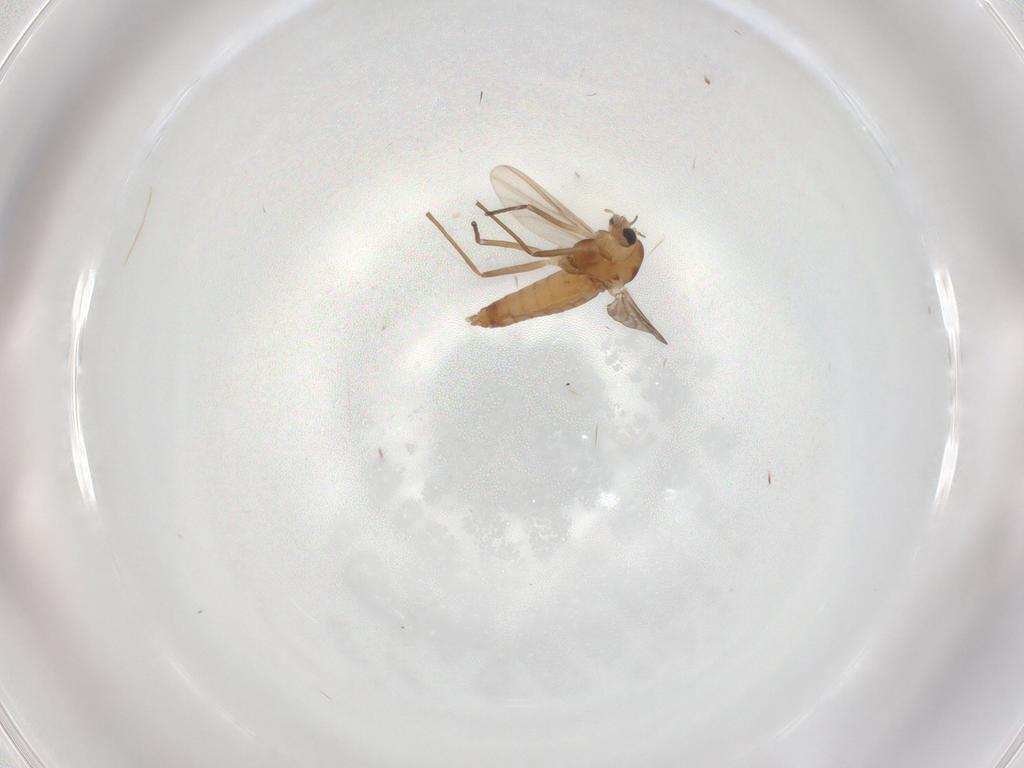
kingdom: Animalia
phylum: Arthropoda
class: Insecta
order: Diptera
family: Chironomidae
